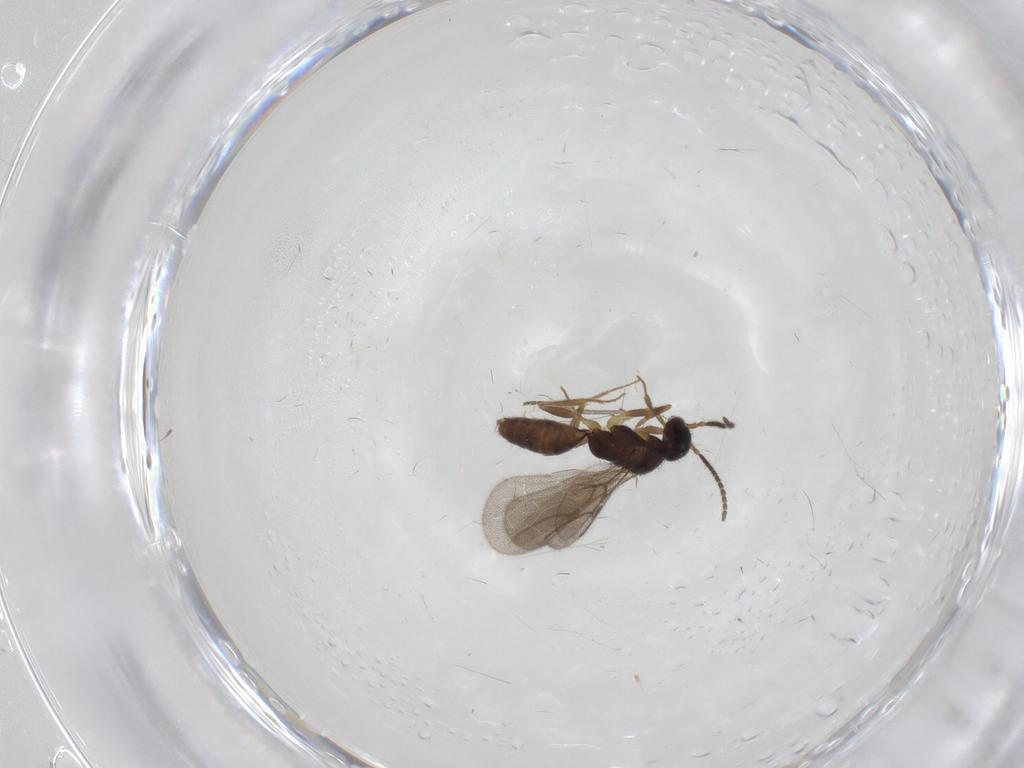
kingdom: Animalia
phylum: Arthropoda
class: Insecta
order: Hymenoptera
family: Bethylidae
